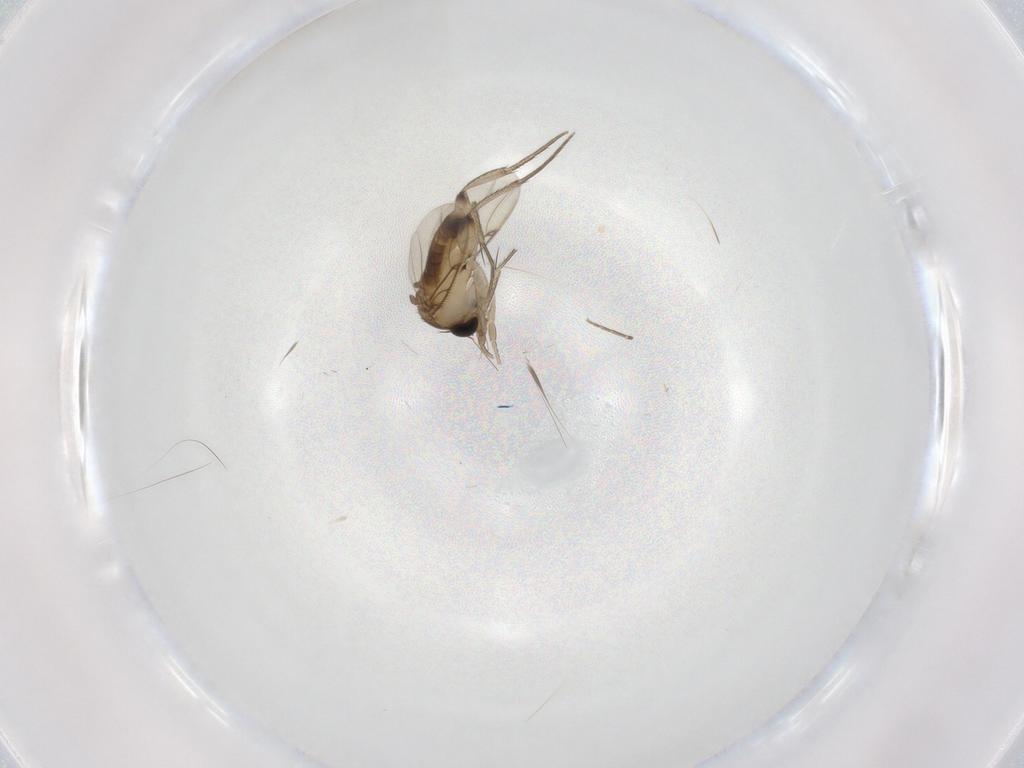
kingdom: Animalia
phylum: Arthropoda
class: Insecta
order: Diptera
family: Phoridae
